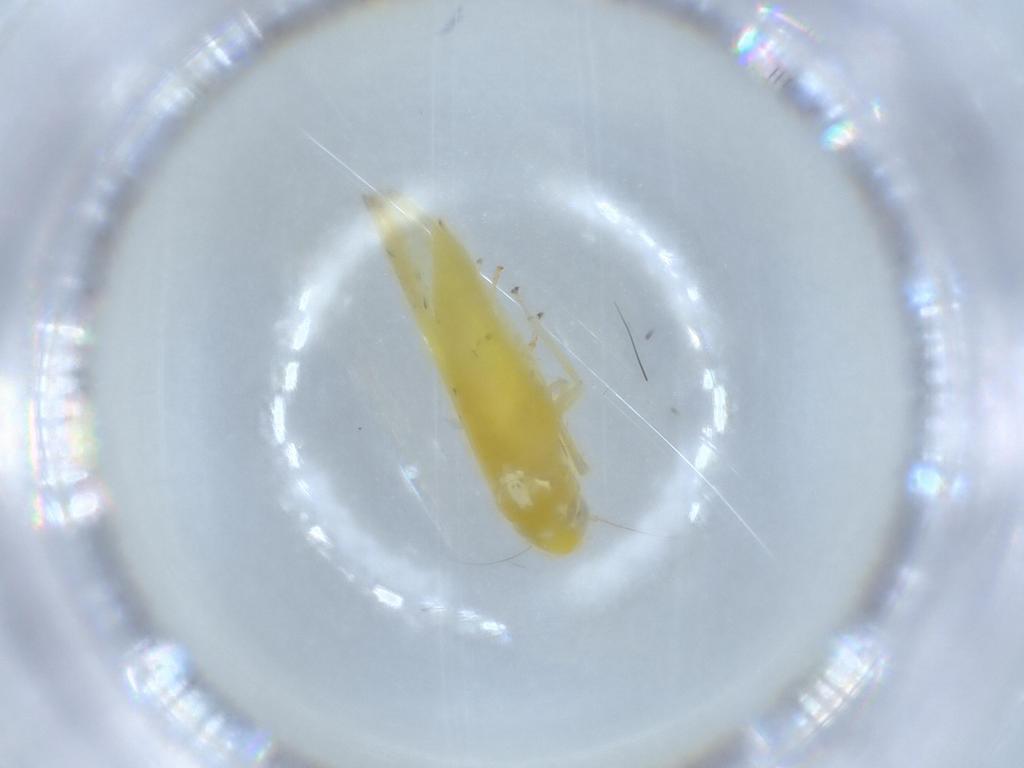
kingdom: Animalia
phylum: Arthropoda
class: Insecta
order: Hemiptera
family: Cicadellidae
